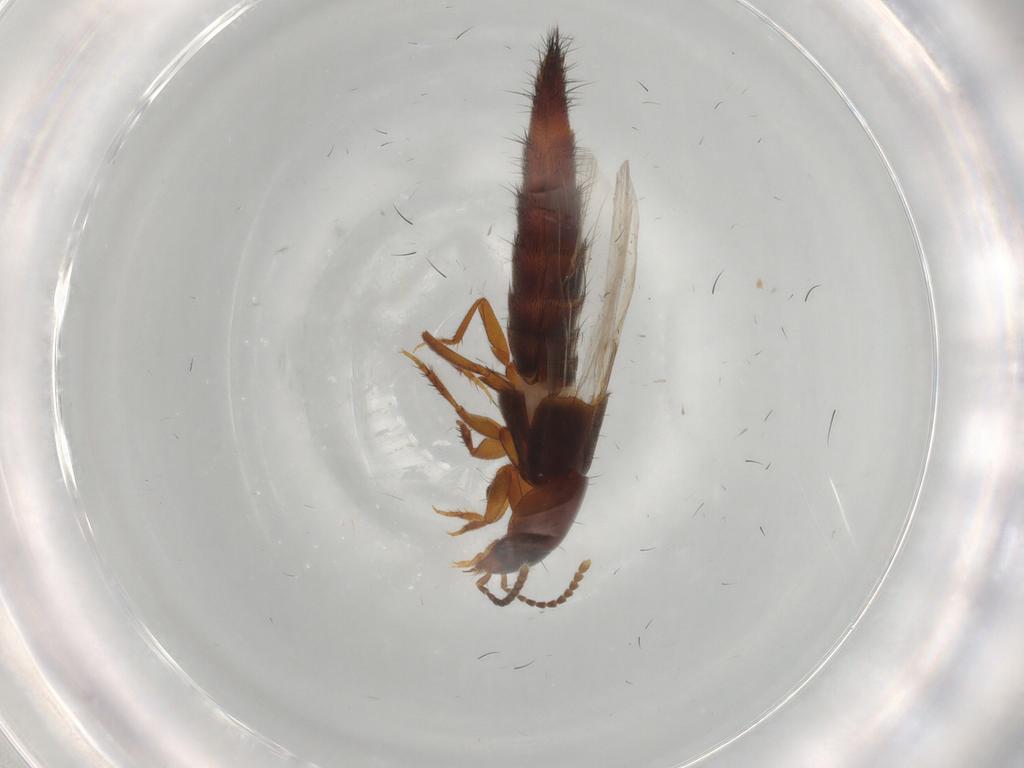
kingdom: Animalia
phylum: Arthropoda
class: Insecta
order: Coleoptera
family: Staphylinidae
